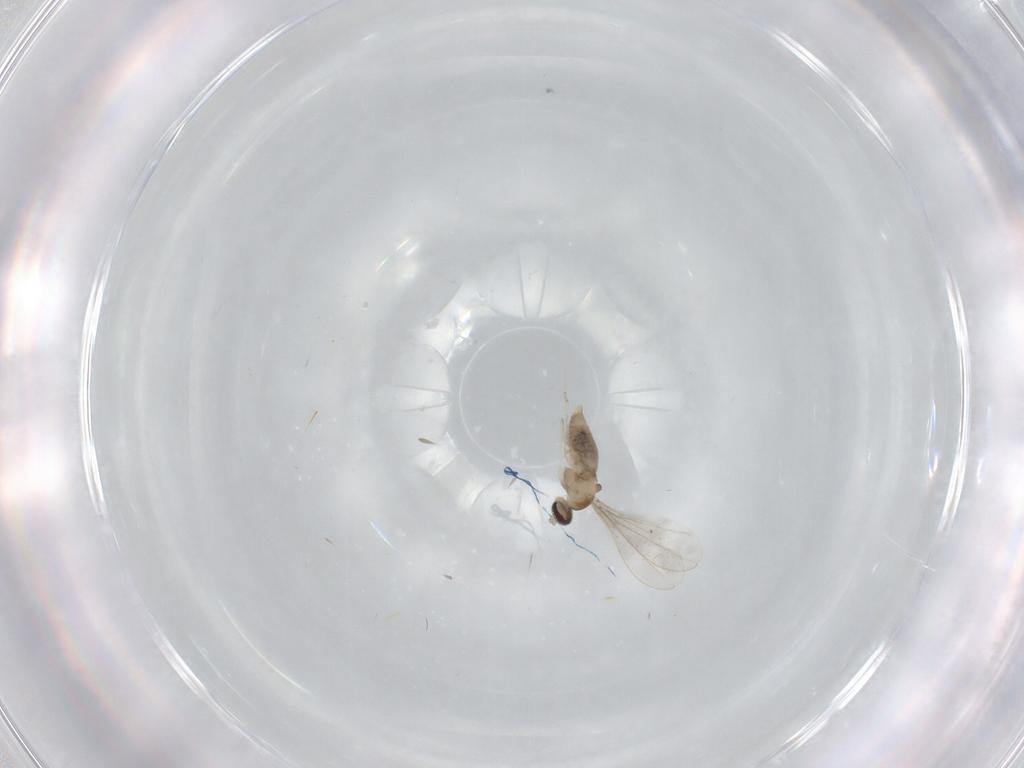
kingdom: Animalia
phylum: Arthropoda
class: Insecta
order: Diptera
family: Cecidomyiidae
